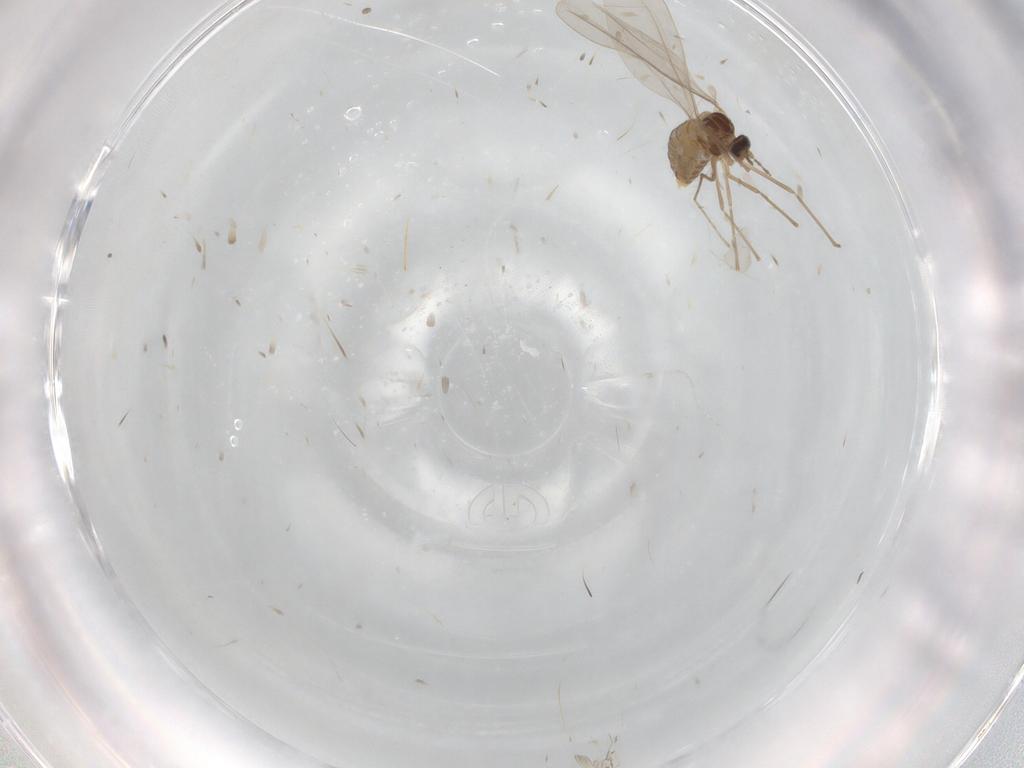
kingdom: Animalia
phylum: Arthropoda
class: Insecta
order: Diptera
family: Cecidomyiidae
